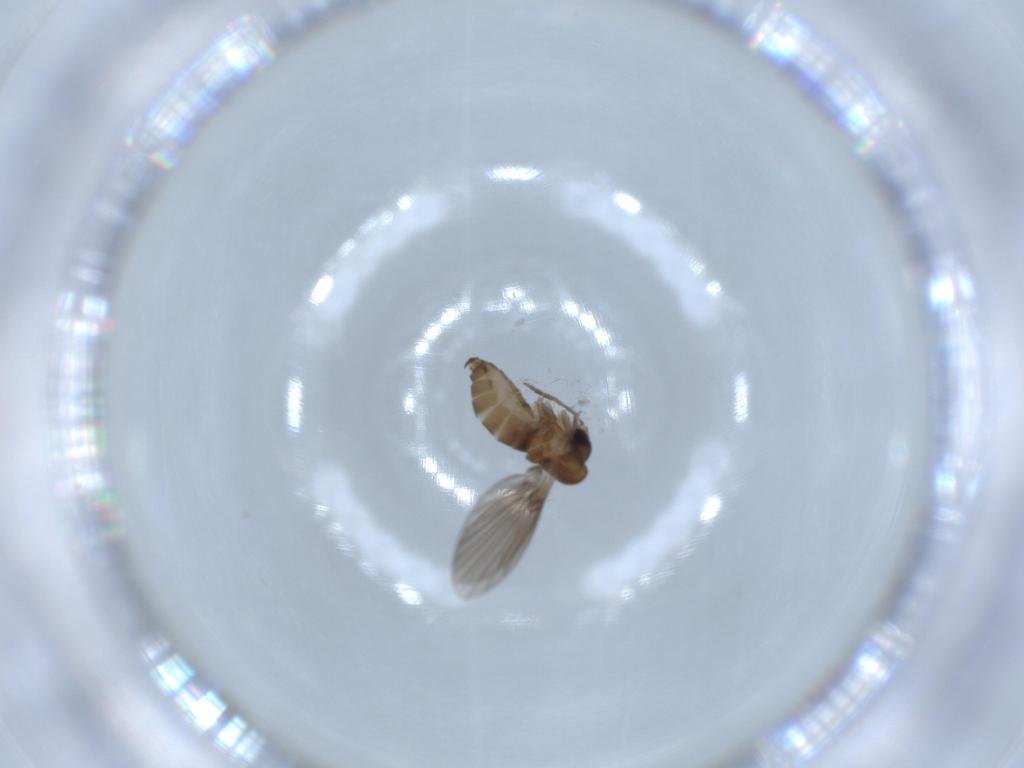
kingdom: Animalia
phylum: Arthropoda
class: Insecta
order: Diptera
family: Psychodidae
